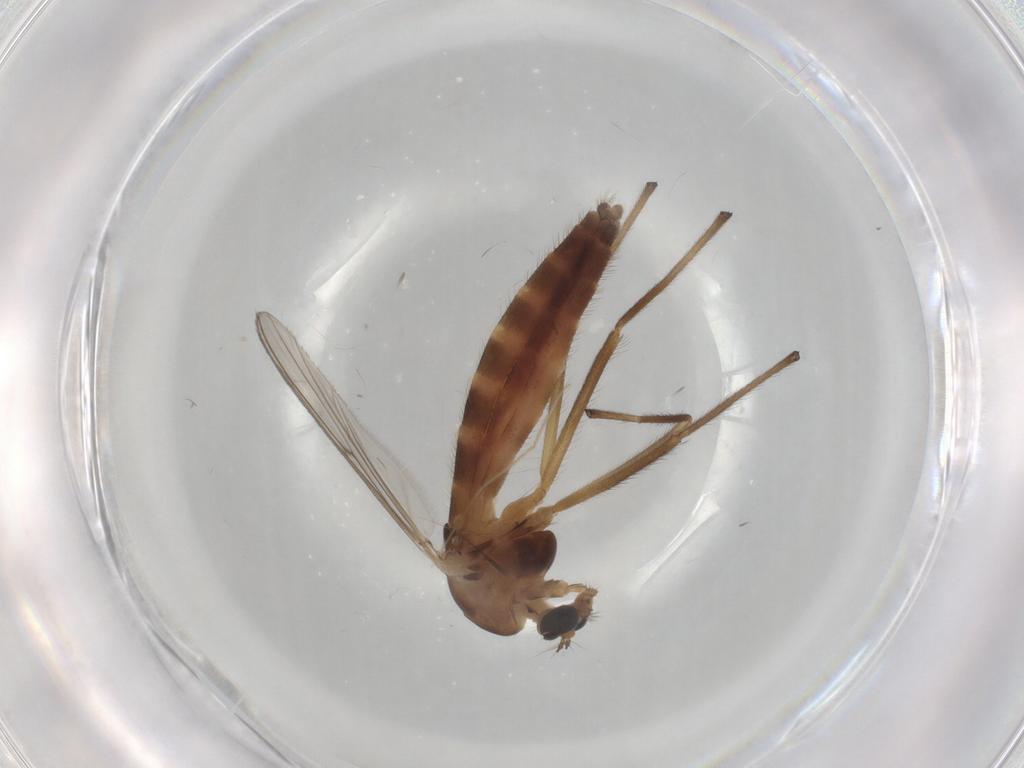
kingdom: Animalia
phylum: Arthropoda
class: Insecta
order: Diptera
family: Chironomidae
